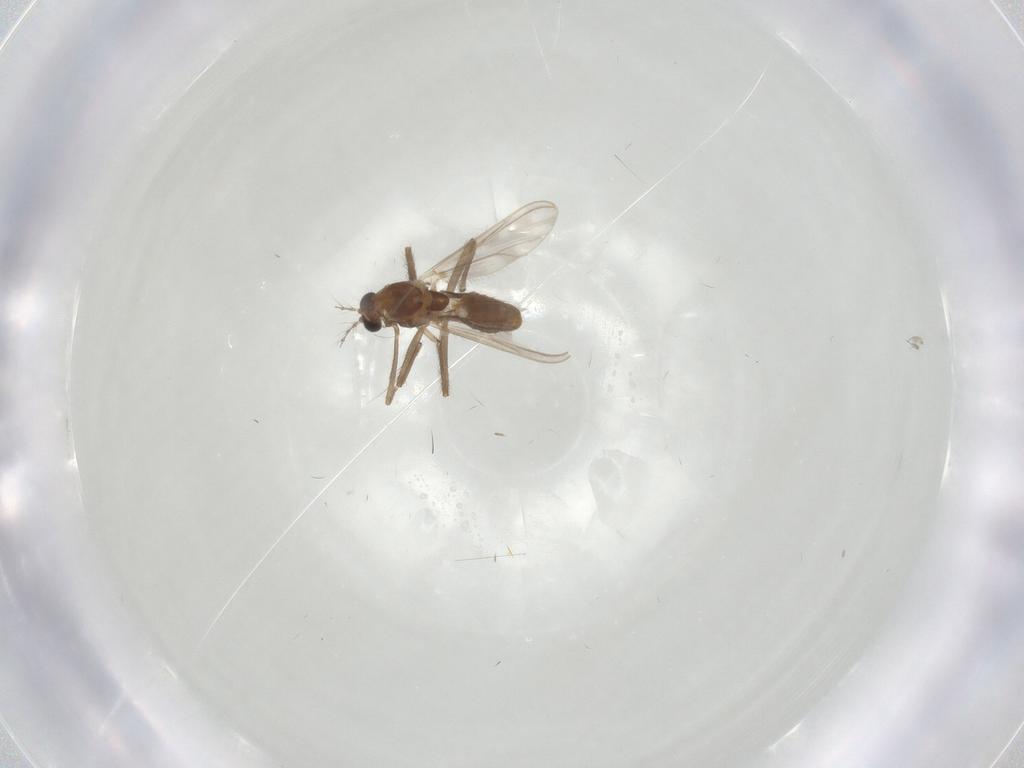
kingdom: Animalia
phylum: Arthropoda
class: Insecta
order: Diptera
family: Chironomidae
